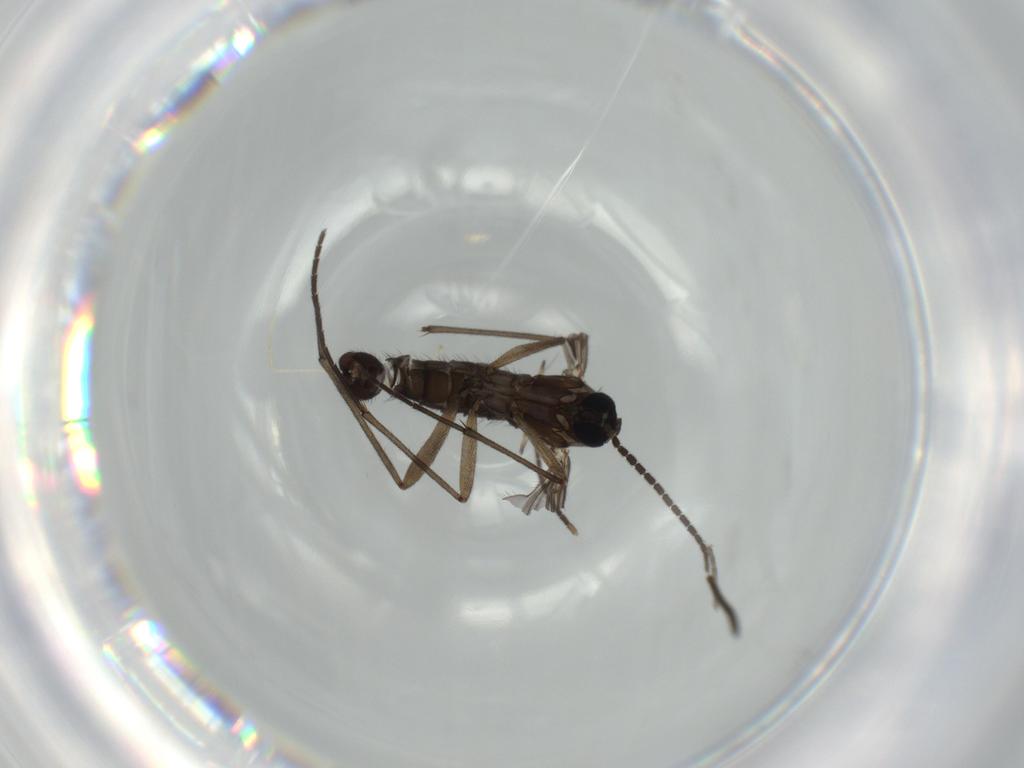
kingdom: Animalia
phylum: Arthropoda
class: Insecta
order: Diptera
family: Sciaridae
